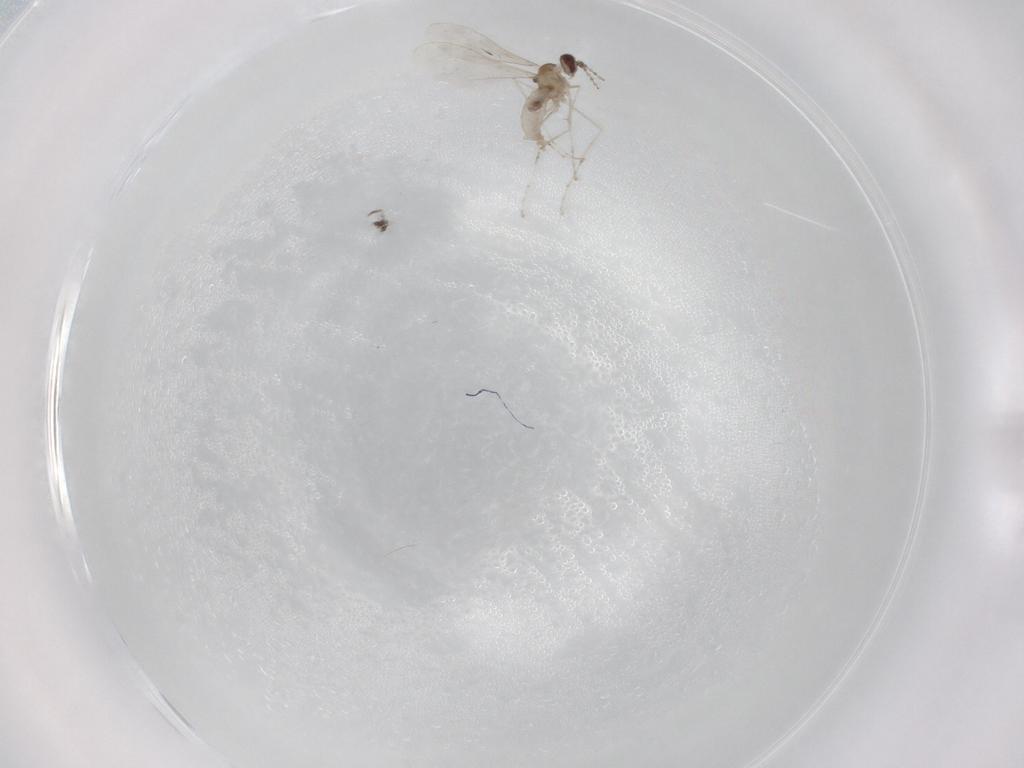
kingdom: Animalia
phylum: Arthropoda
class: Insecta
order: Diptera
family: Cecidomyiidae
